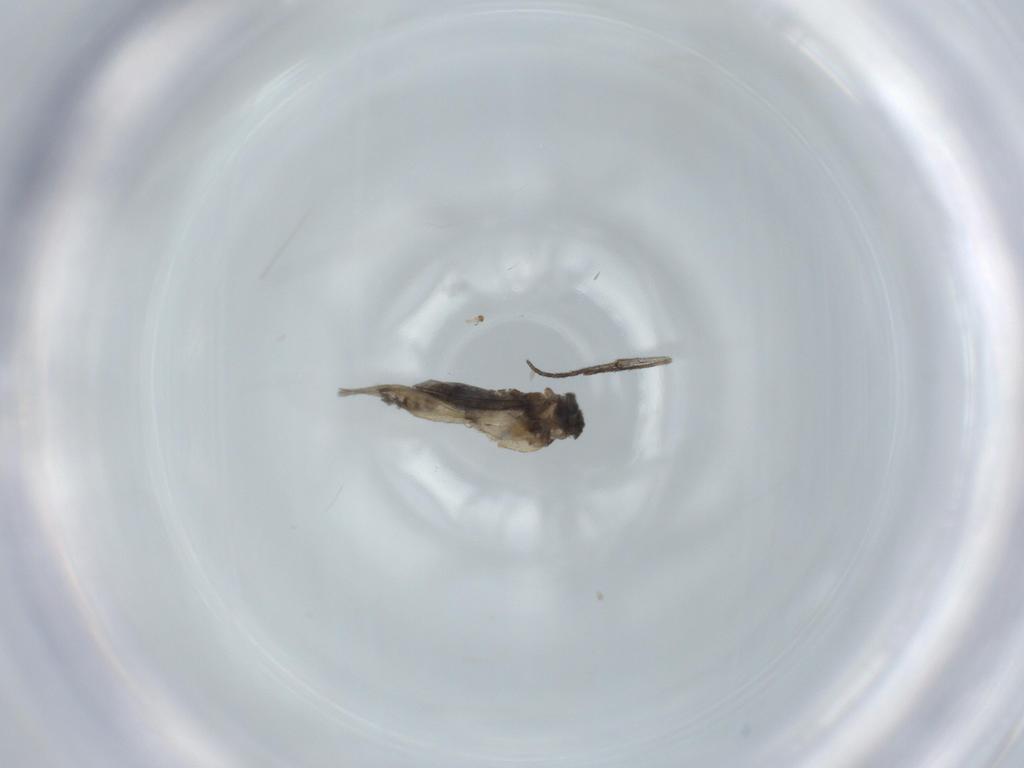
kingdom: Animalia
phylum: Arthropoda
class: Insecta
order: Diptera
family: Sciaridae
